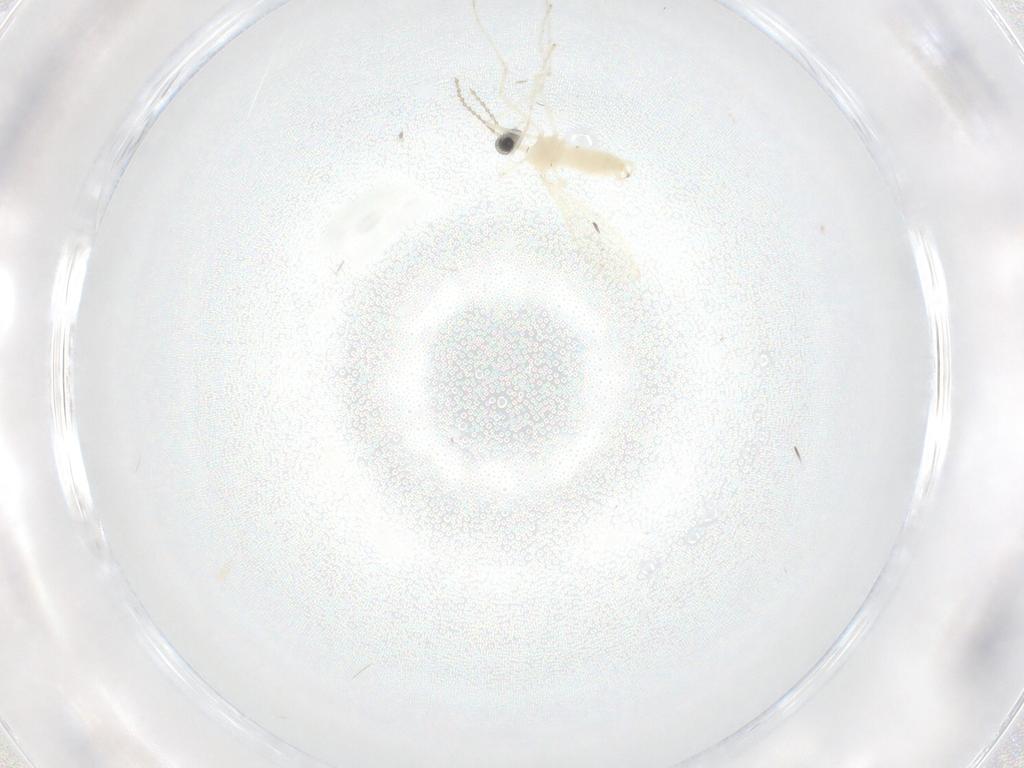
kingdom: Animalia
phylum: Arthropoda
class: Insecta
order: Diptera
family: Cecidomyiidae
